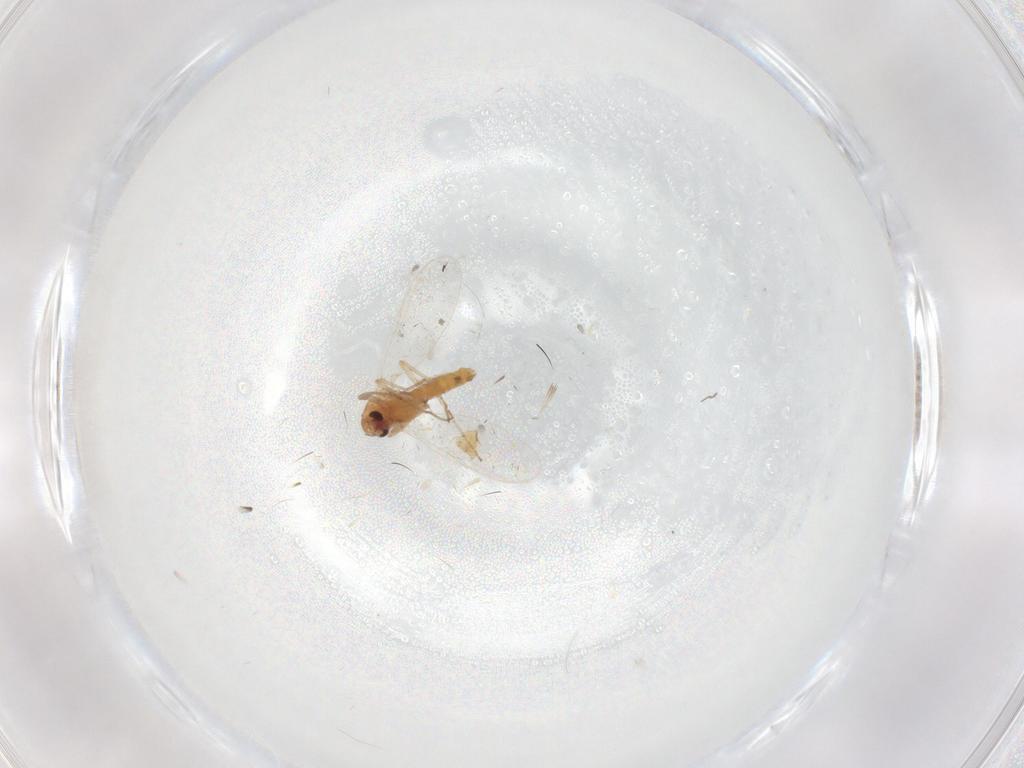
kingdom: Animalia
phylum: Arthropoda
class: Insecta
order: Diptera
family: Chironomidae
